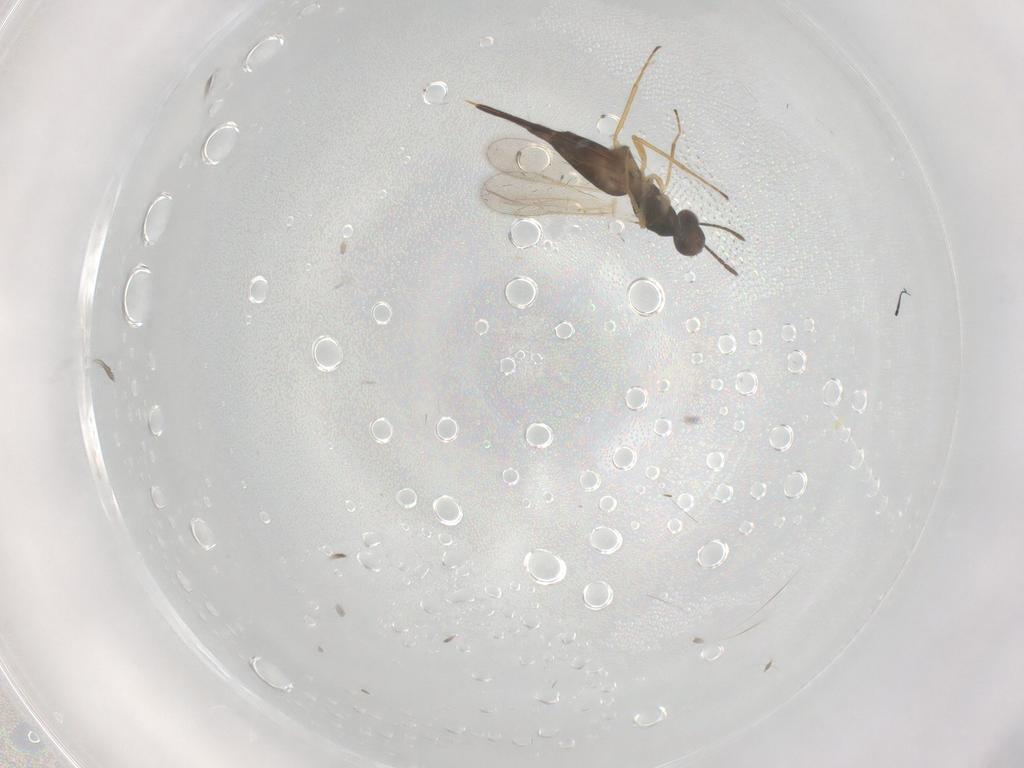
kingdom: Animalia
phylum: Arthropoda
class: Insecta
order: Hymenoptera
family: Eulophidae
